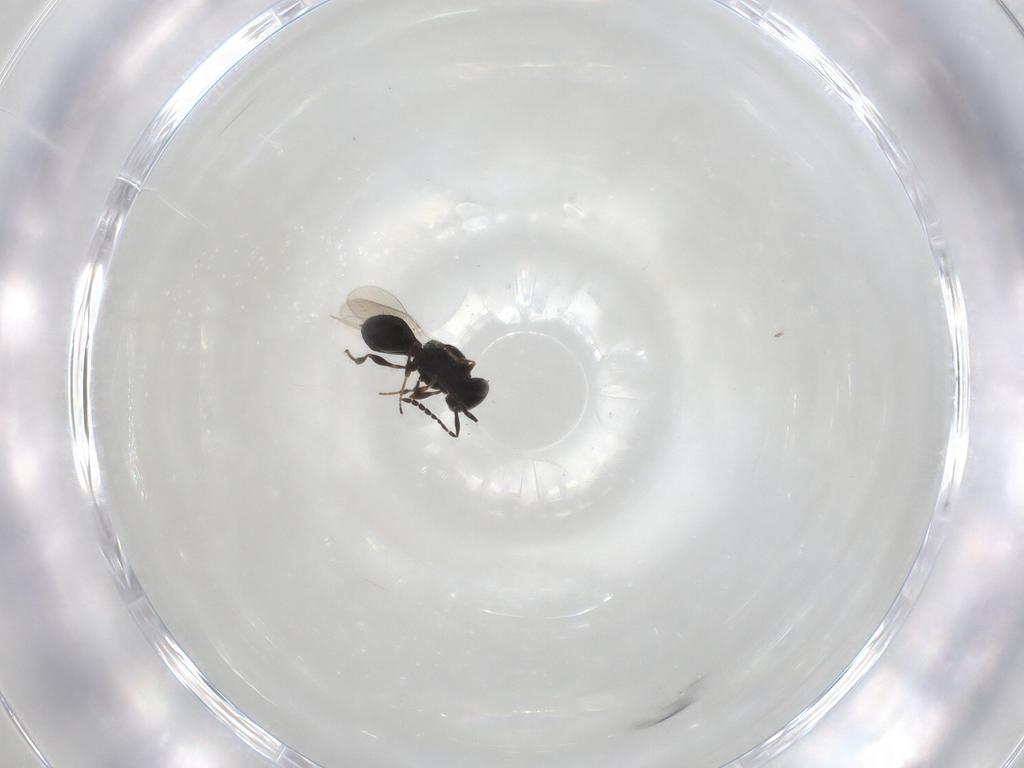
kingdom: Animalia
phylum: Arthropoda
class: Insecta
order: Hymenoptera
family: Platygastridae
